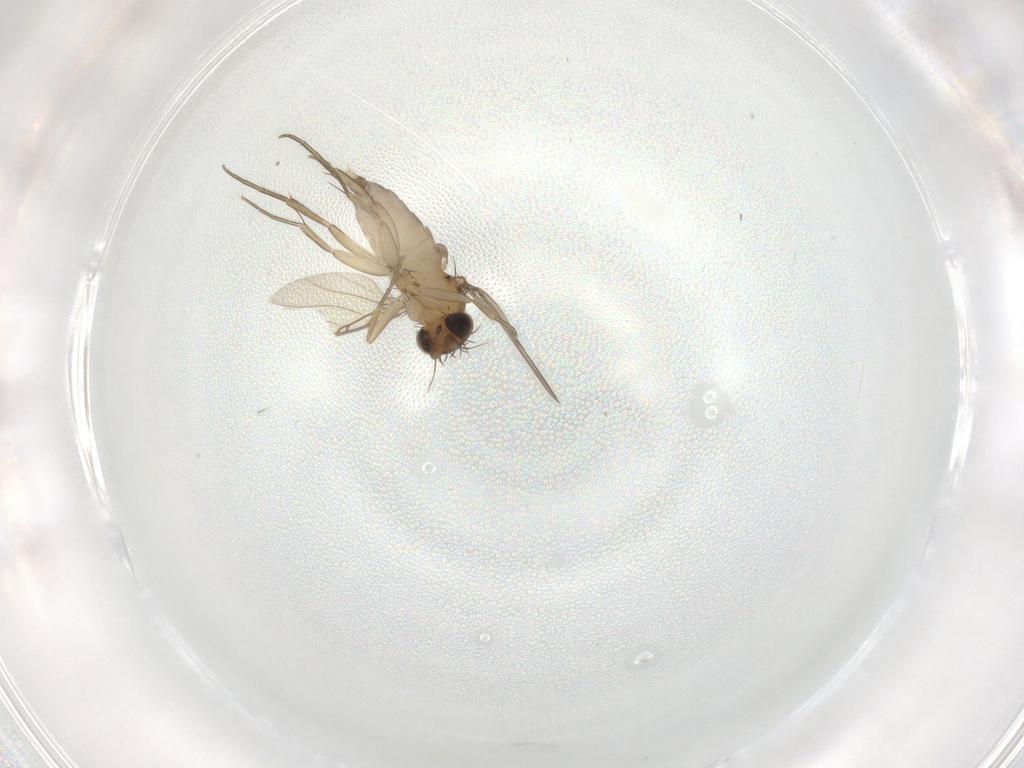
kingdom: Animalia
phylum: Arthropoda
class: Insecta
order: Diptera
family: Phoridae
